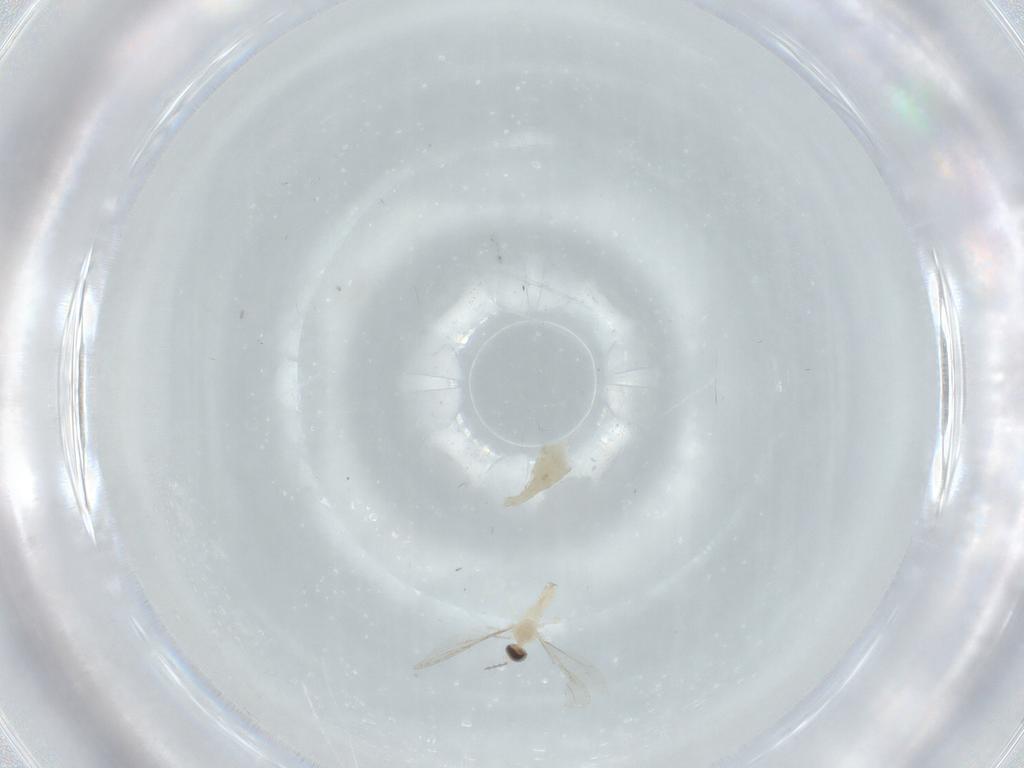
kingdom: Animalia
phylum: Arthropoda
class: Insecta
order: Diptera
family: Cecidomyiidae
